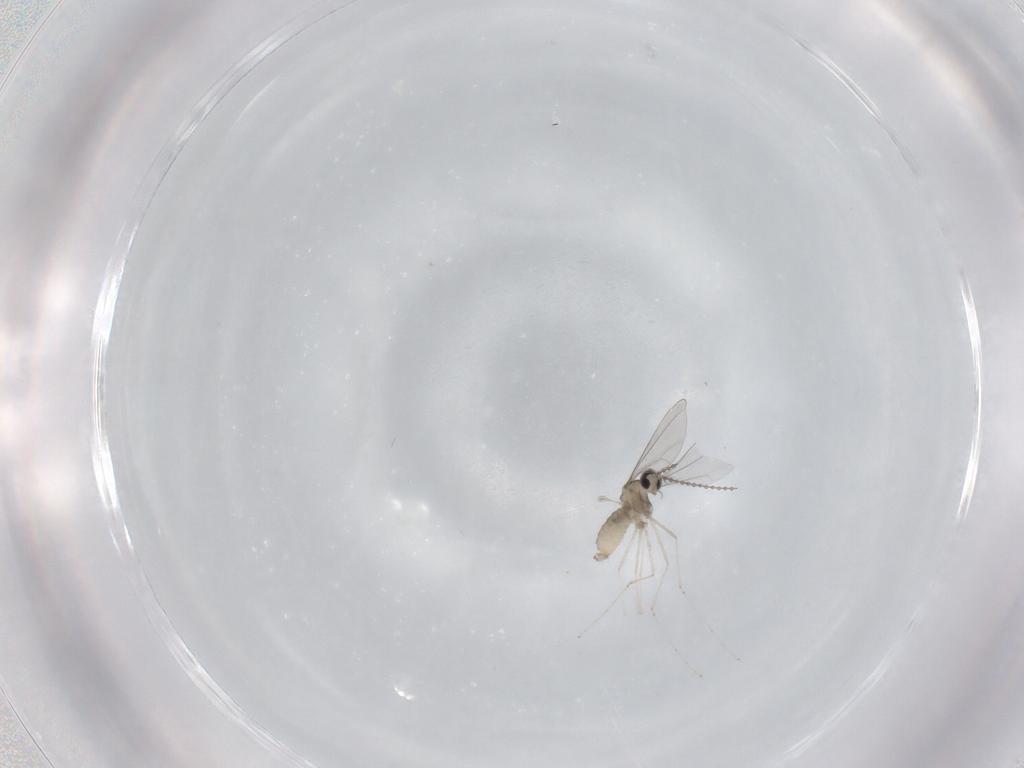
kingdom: Animalia
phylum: Arthropoda
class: Insecta
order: Diptera
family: Cecidomyiidae
